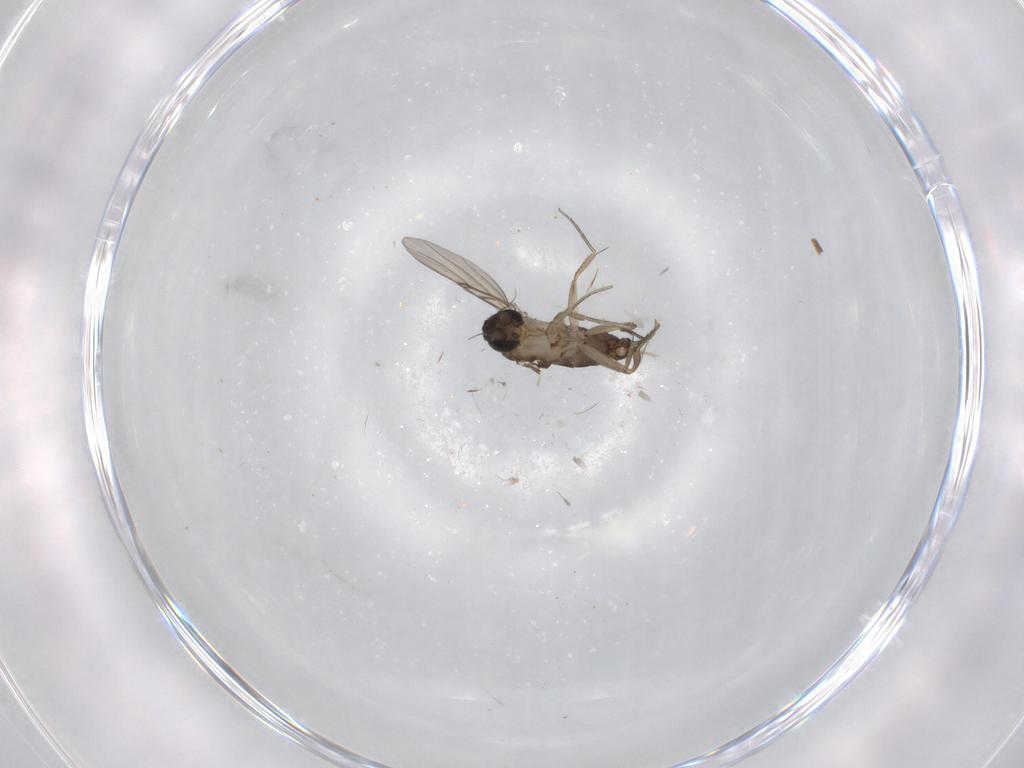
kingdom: Animalia
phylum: Arthropoda
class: Insecta
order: Diptera
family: Phoridae
